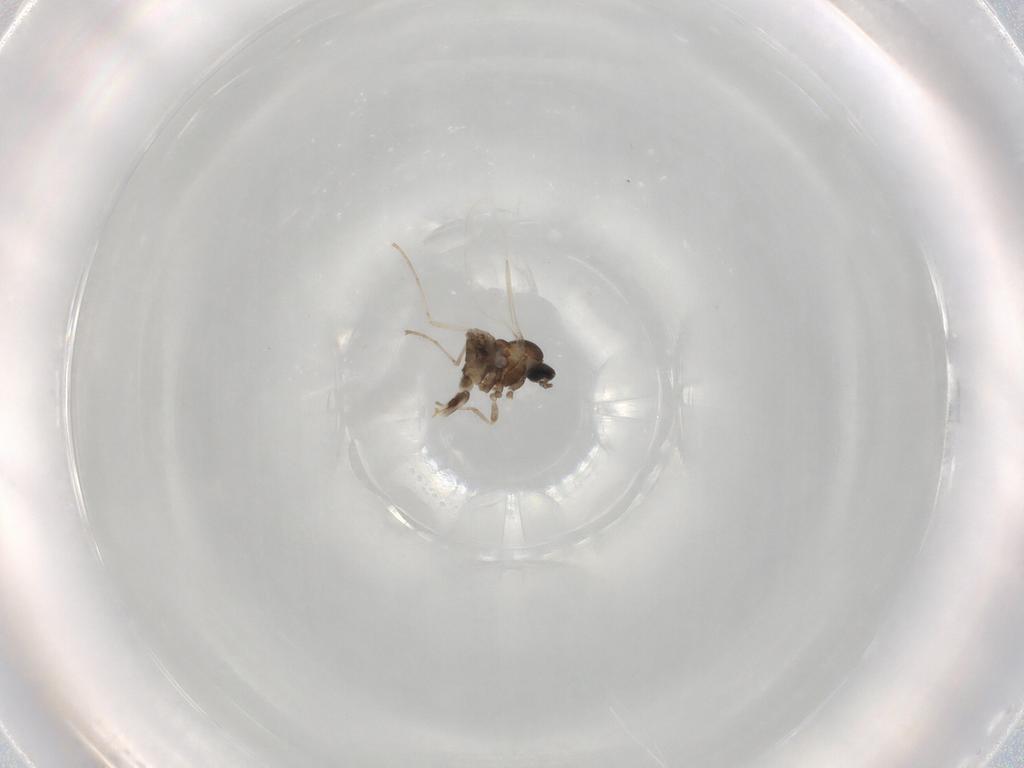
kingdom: Animalia
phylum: Arthropoda
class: Insecta
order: Diptera
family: Cecidomyiidae
